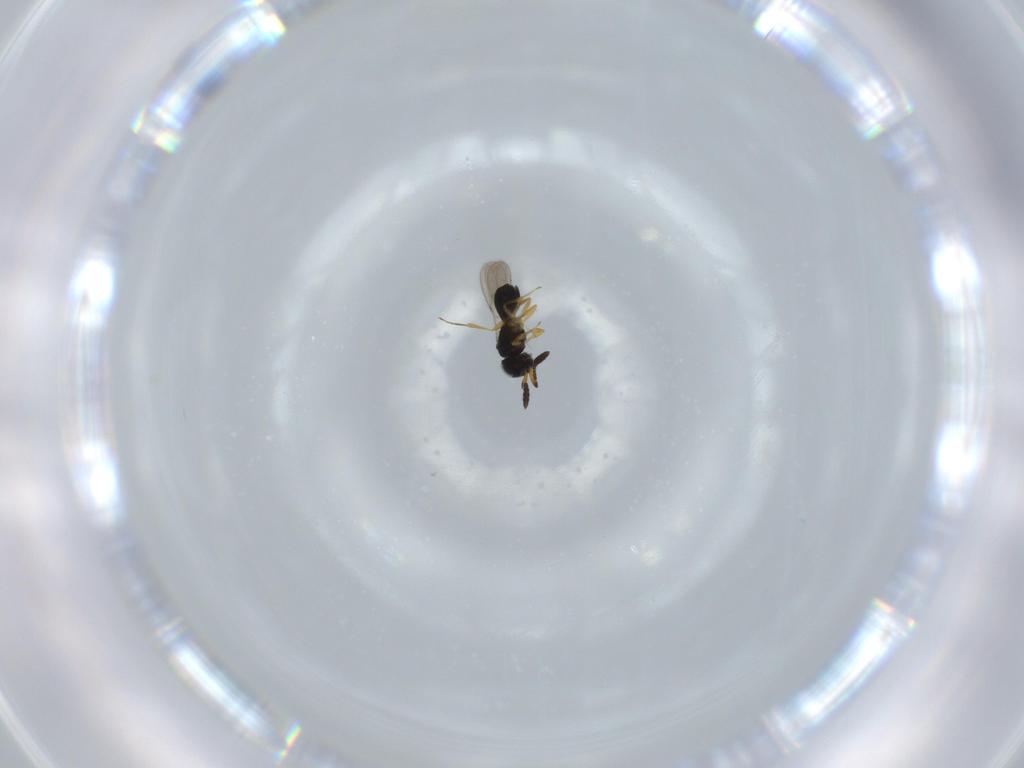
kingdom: Animalia
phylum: Arthropoda
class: Insecta
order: Hymenoptera
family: Scelionidae
